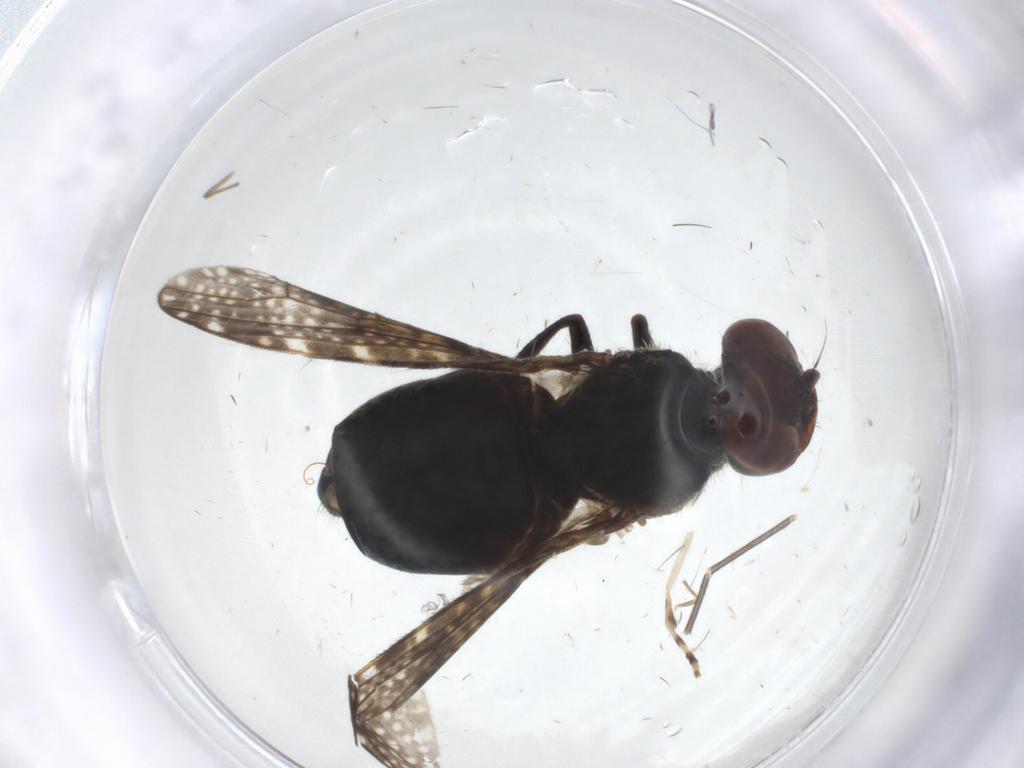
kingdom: Animalia
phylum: Arthropoda
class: Insecta
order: Diptera
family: Platystomatidae
